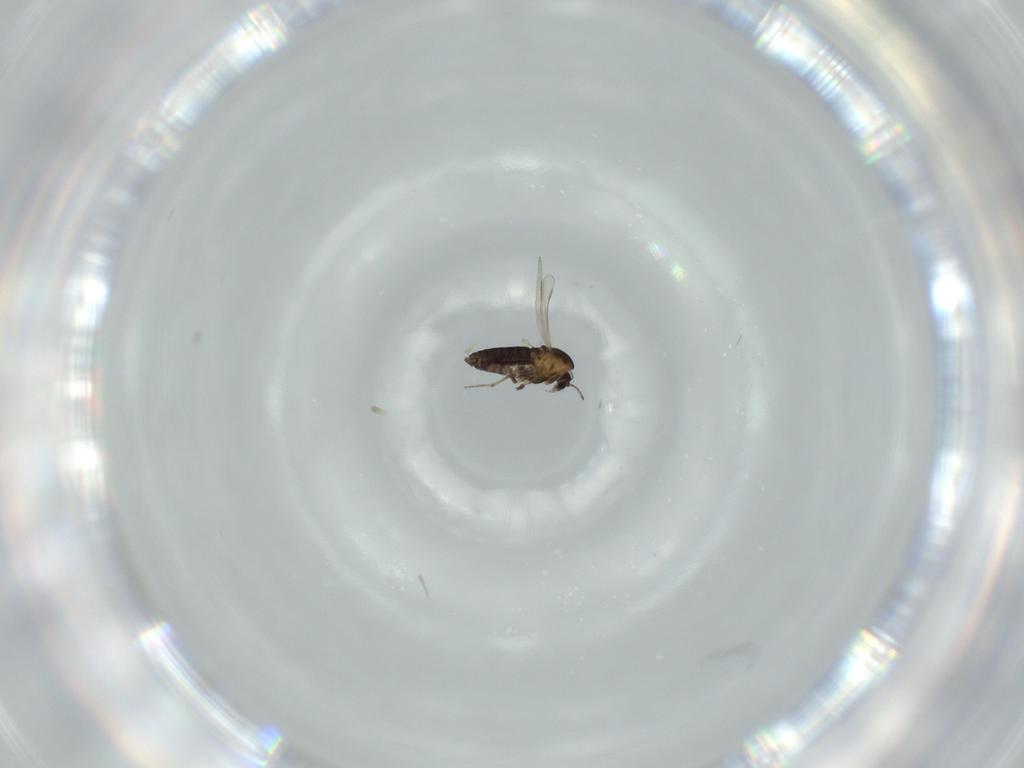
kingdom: Animalia
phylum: Arthropoda
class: Insecta
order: Diptera
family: Chironomidae
